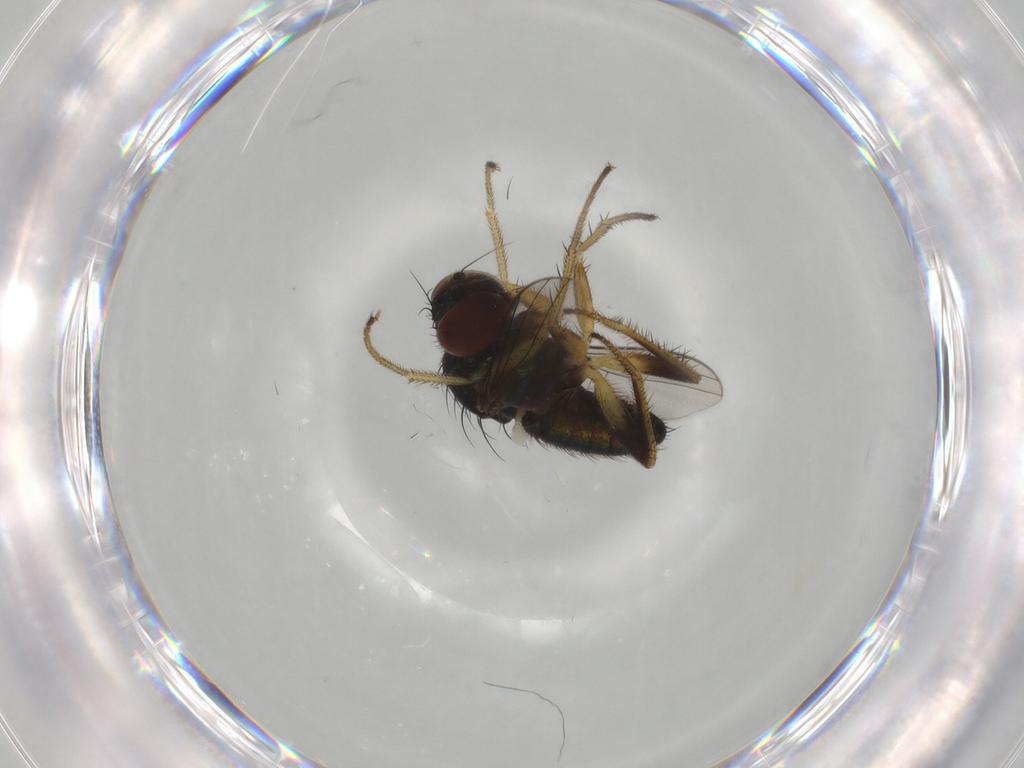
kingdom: Animalia
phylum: Arthropoda
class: Insecta
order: Diptera
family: Dolichopodidae
